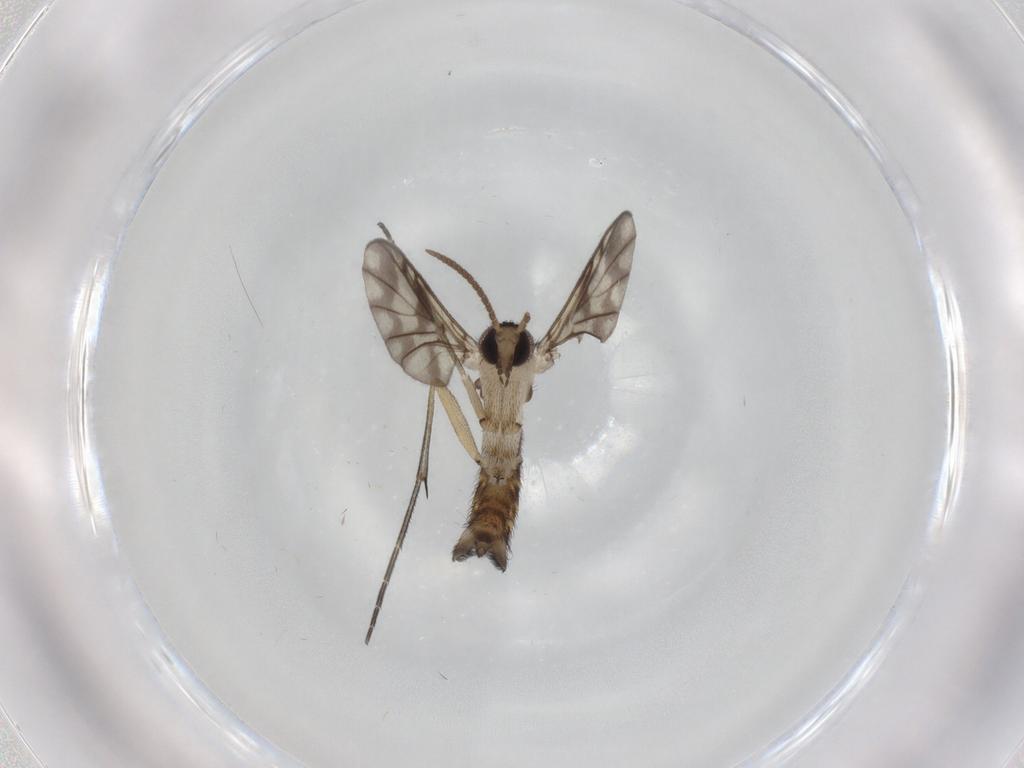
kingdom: Animalia
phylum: Arthropoda
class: Insecta
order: Diptera
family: Keroplatidae
